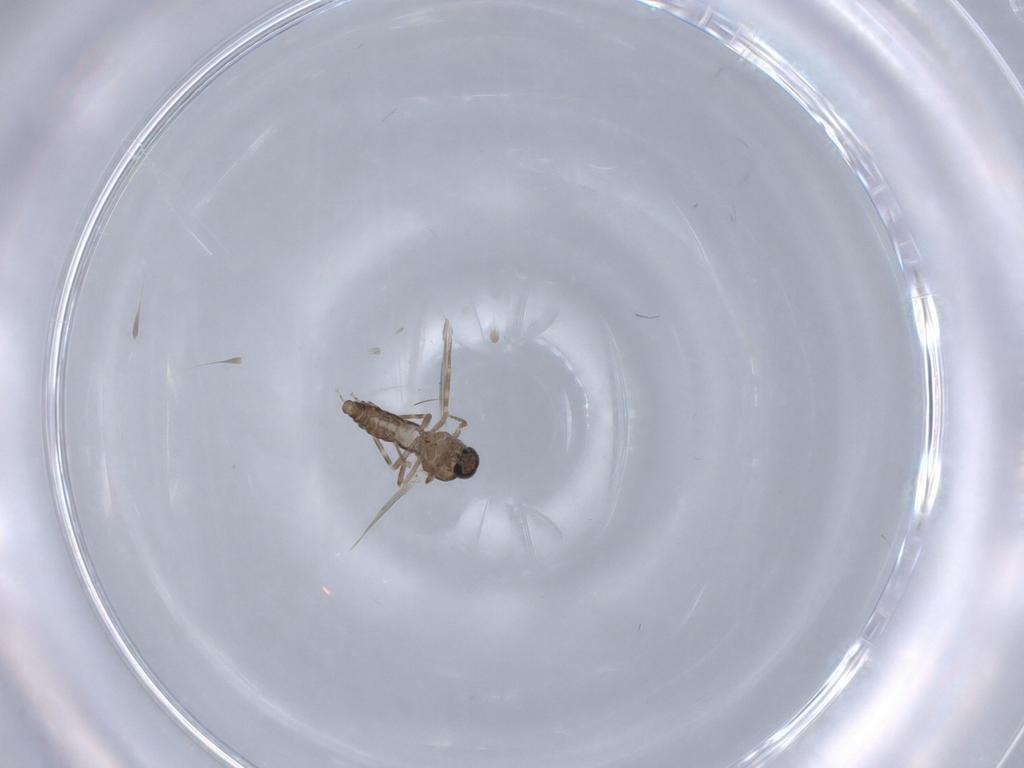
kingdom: Animalia
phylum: Arthropoda
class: Insecta
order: Diptera
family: Ceratopogonidae
